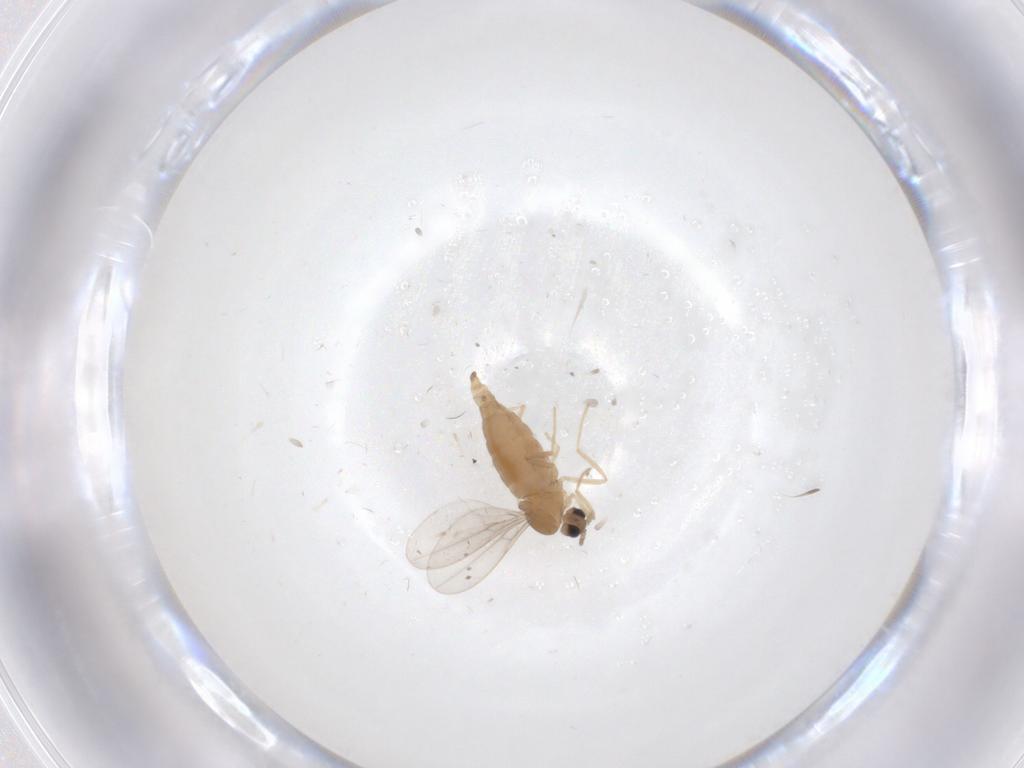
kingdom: Animalia
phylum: Arthropoda
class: Insecta
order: Diptera
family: Cecidomyiidae
